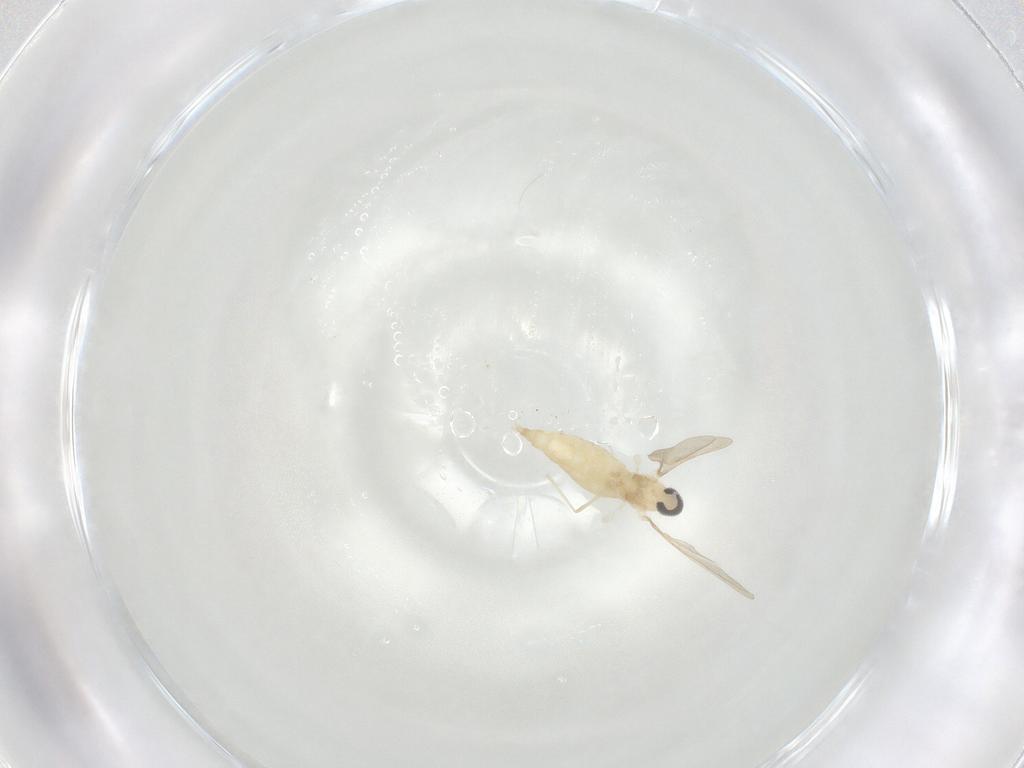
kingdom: Animalia
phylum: Arthropoda
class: Insecta
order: Diptera
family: Cecidomyiidae
